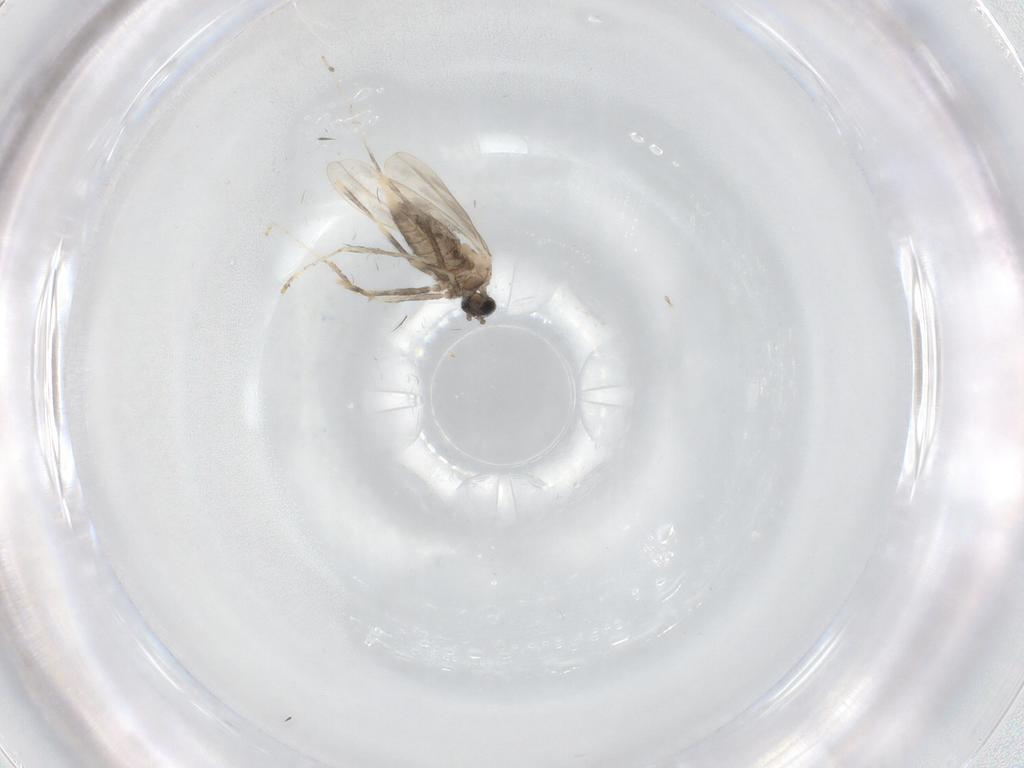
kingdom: Animalia
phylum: Arthropoda
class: Insecta
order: Diptera
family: Cecidomyiidae
